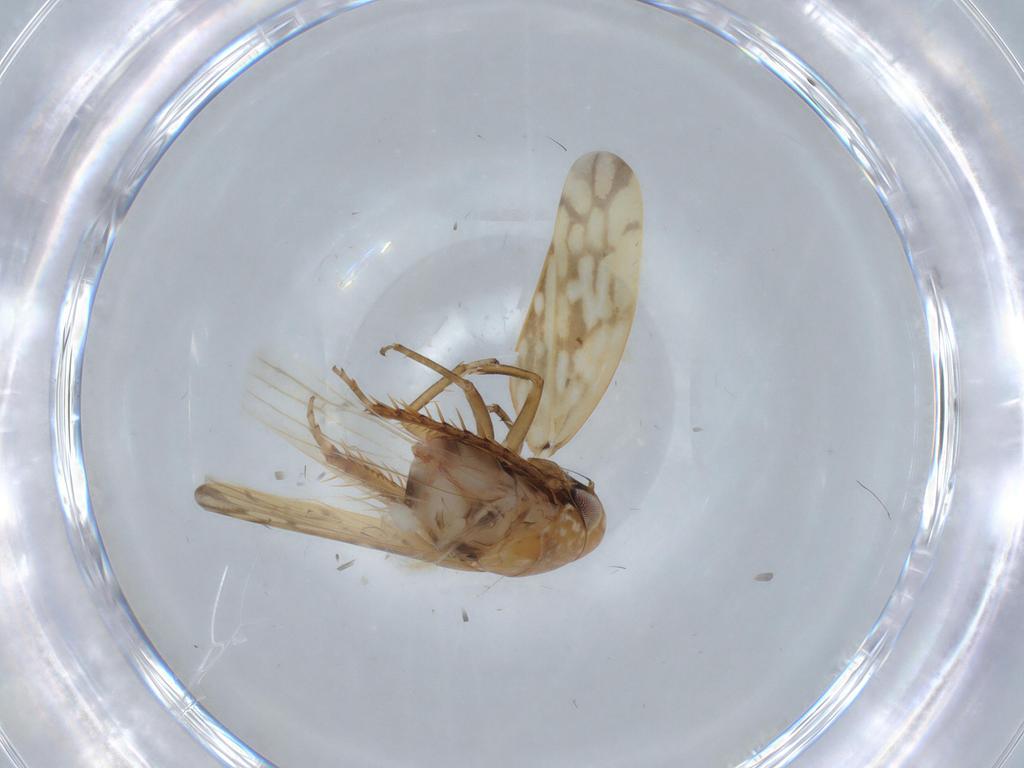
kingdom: Animalia
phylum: Arthropoda
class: Insecta
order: Hemiptera
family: Cicadellidae
